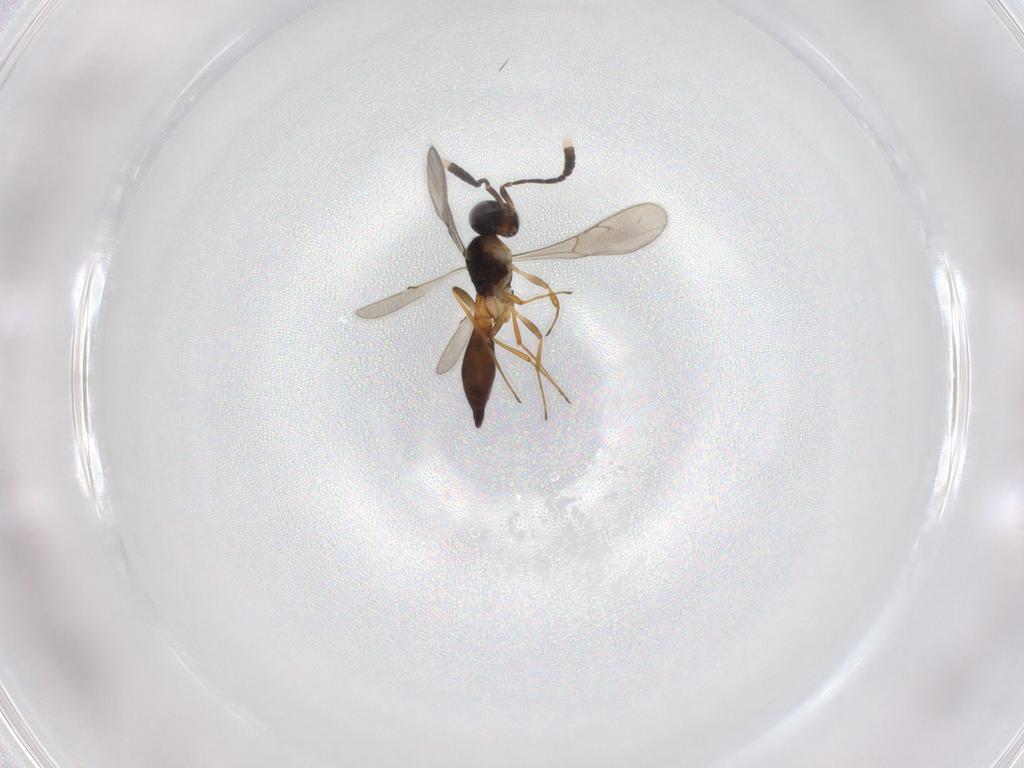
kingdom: Animalia
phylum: Arthropoda
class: Insecta
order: Hymenoptera
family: Scelionidae
